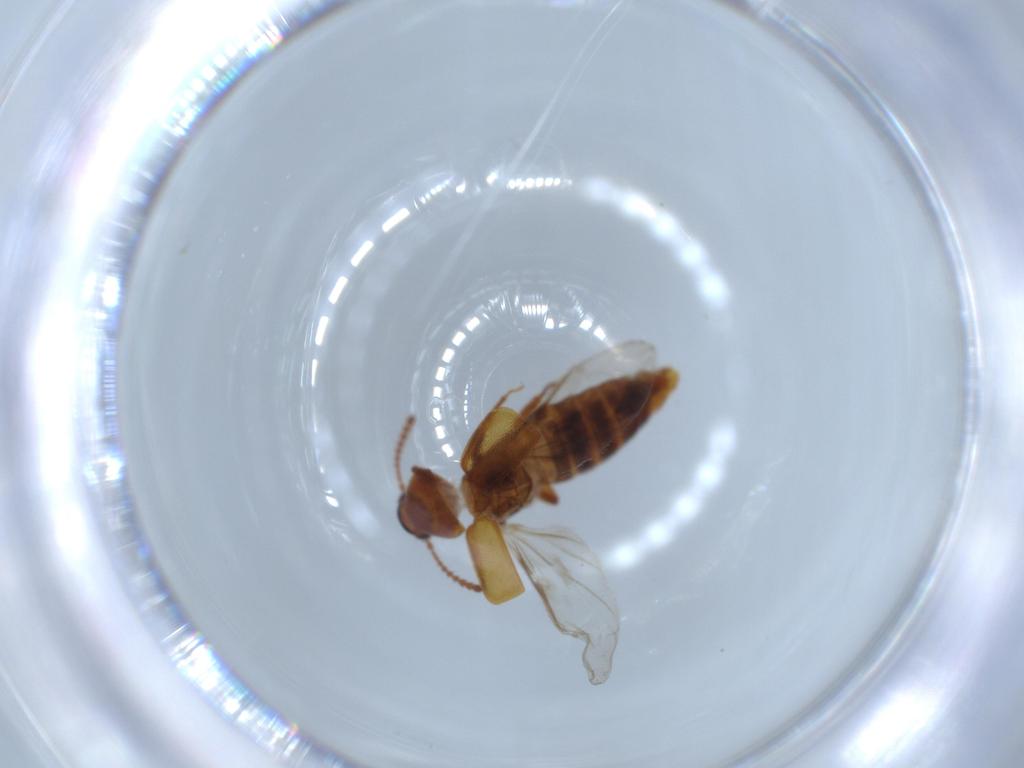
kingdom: Animalia
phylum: Arthropoda
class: Insecta
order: Coleoptera
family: Staphylinidae
